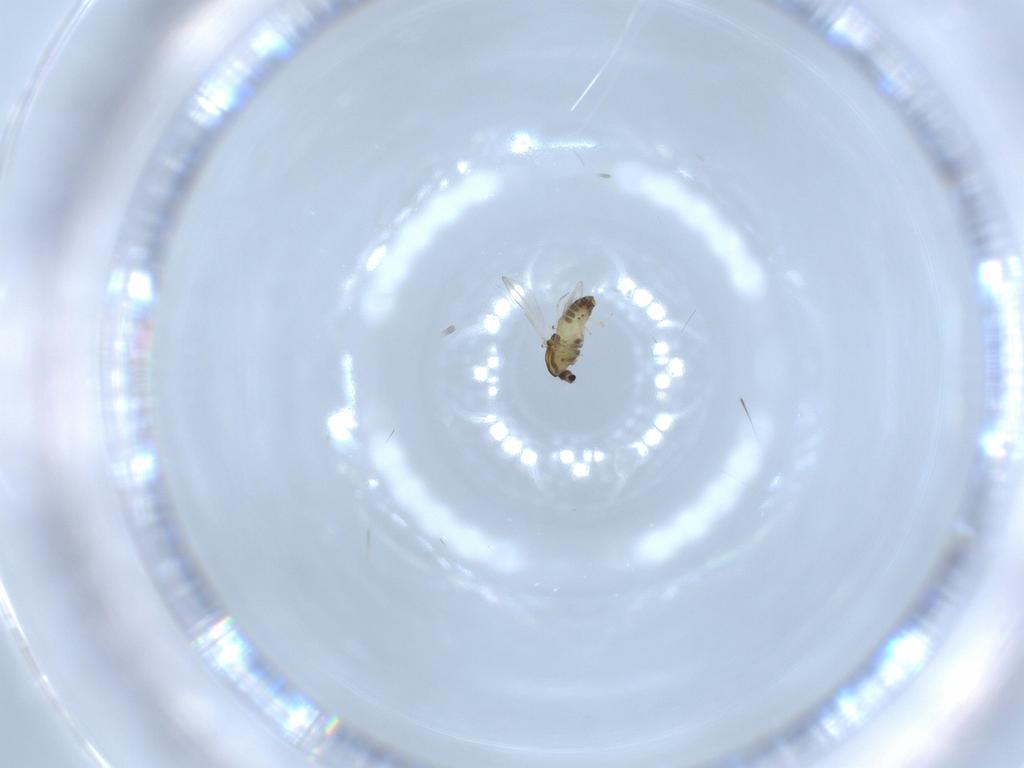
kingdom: Animalia
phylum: Arthropoda
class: Insecta
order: Diptera
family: Chironomidae
